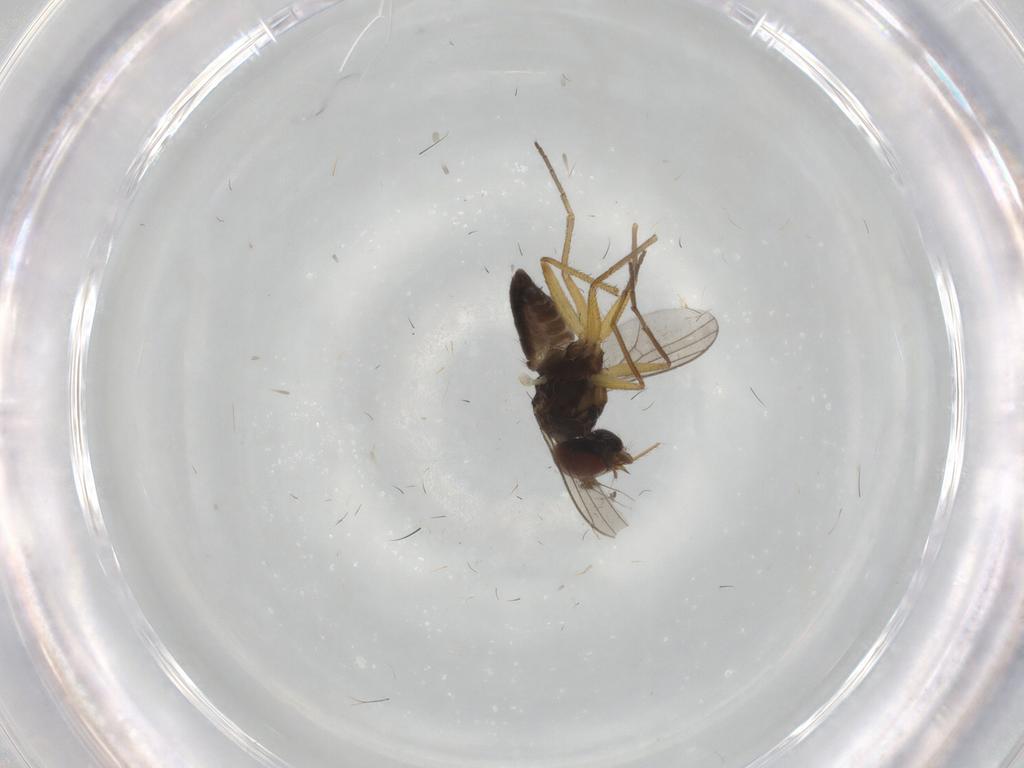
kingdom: Animalia
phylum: Arthropoda
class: Insecta
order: Diptera
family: Dolichopodidae
